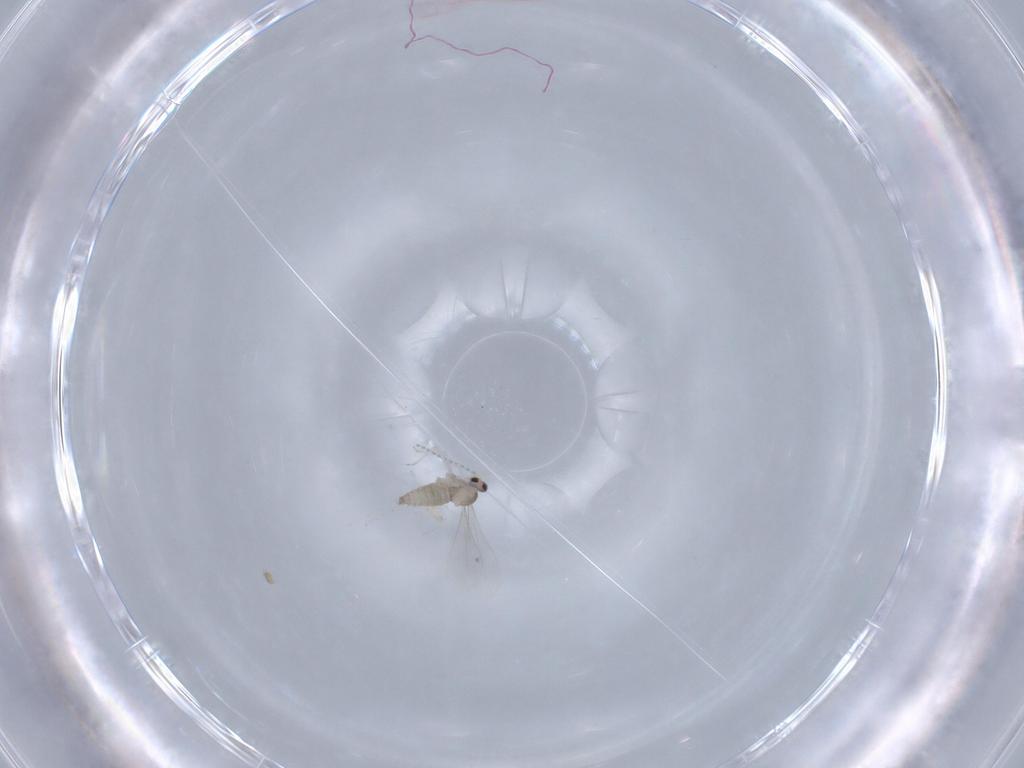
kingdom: Animalia
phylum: Arthropoda
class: Insecta
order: Diptera
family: Cecidomyiidae
